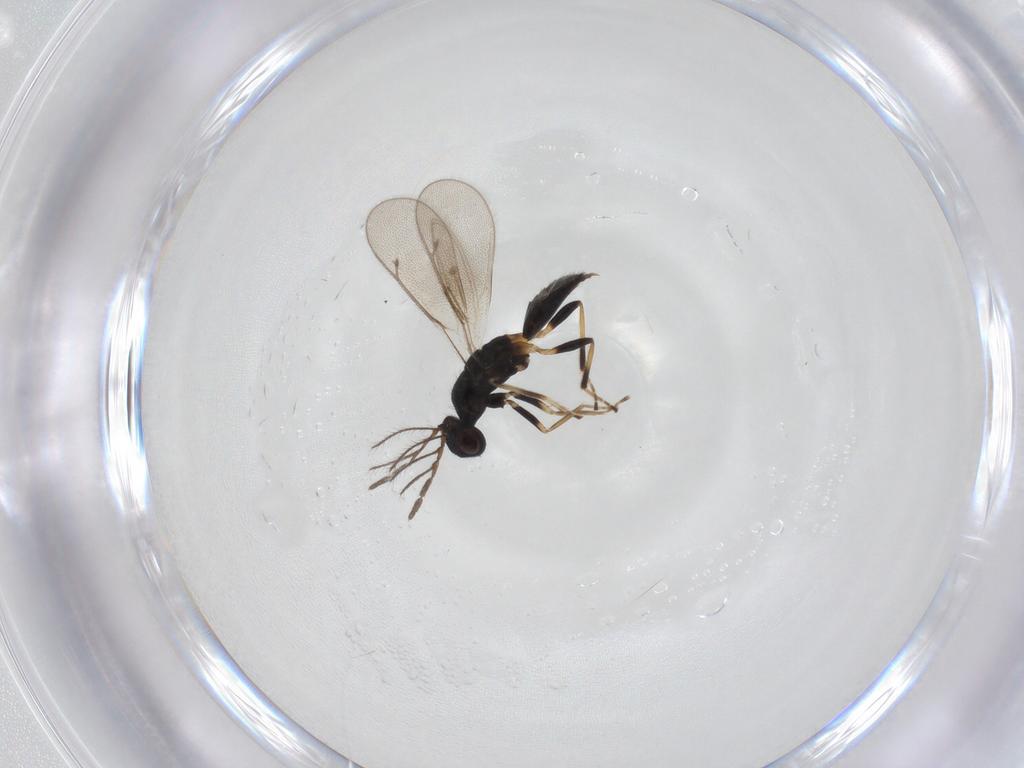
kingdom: Animalia
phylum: Arthropoda
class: Insecta
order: Hymenoptera
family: Eulophidae
